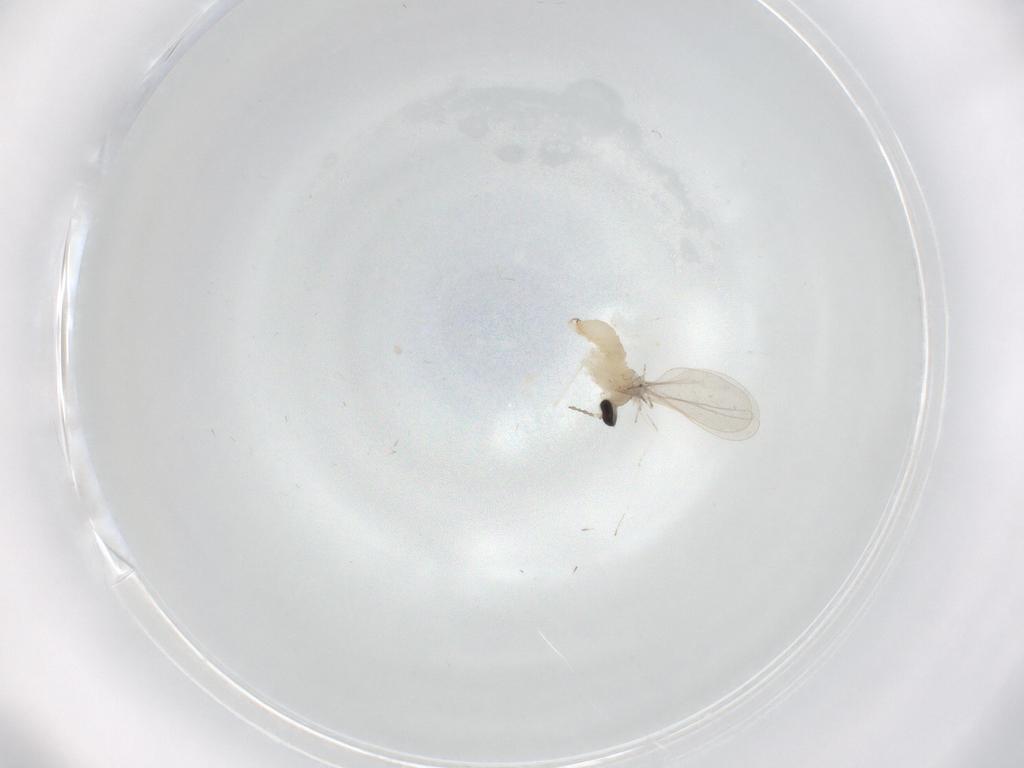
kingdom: Animalia
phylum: Arthropoda
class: Insecta
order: Diptera
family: Cecidomyiidae
